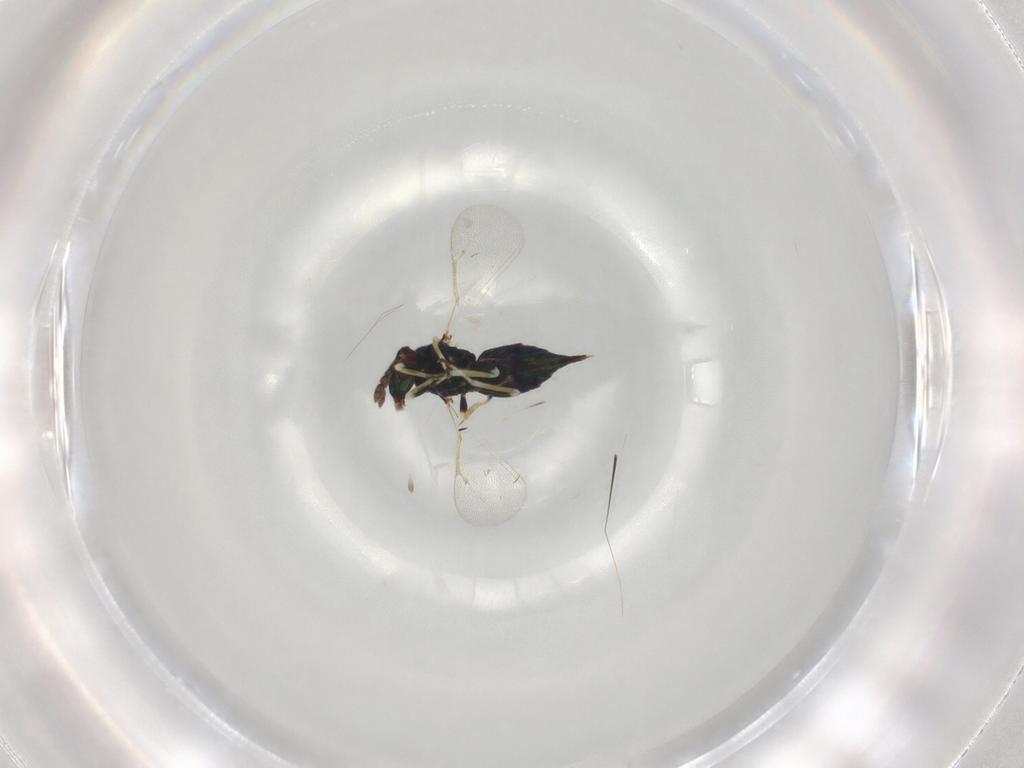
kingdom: Animalia
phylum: Arthropoda
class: Insecta
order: Hymenoptera
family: Eulophidae
